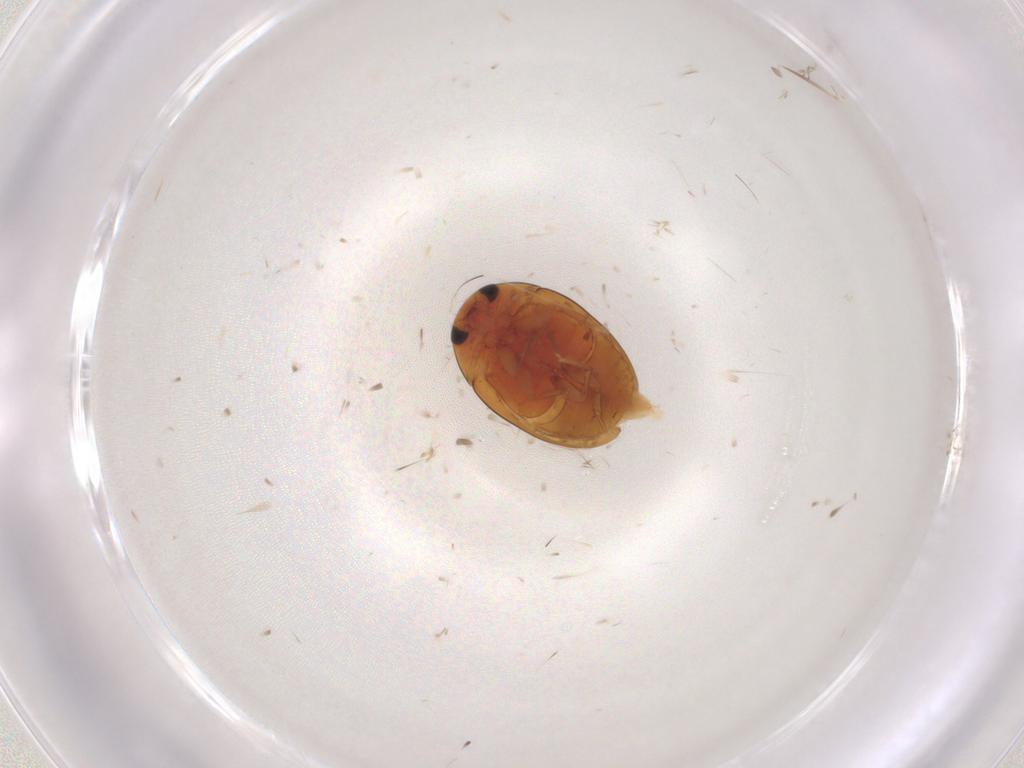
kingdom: Animalia
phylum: Arthropoda
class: Insecta
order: Coleoptera
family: Phalacridae
